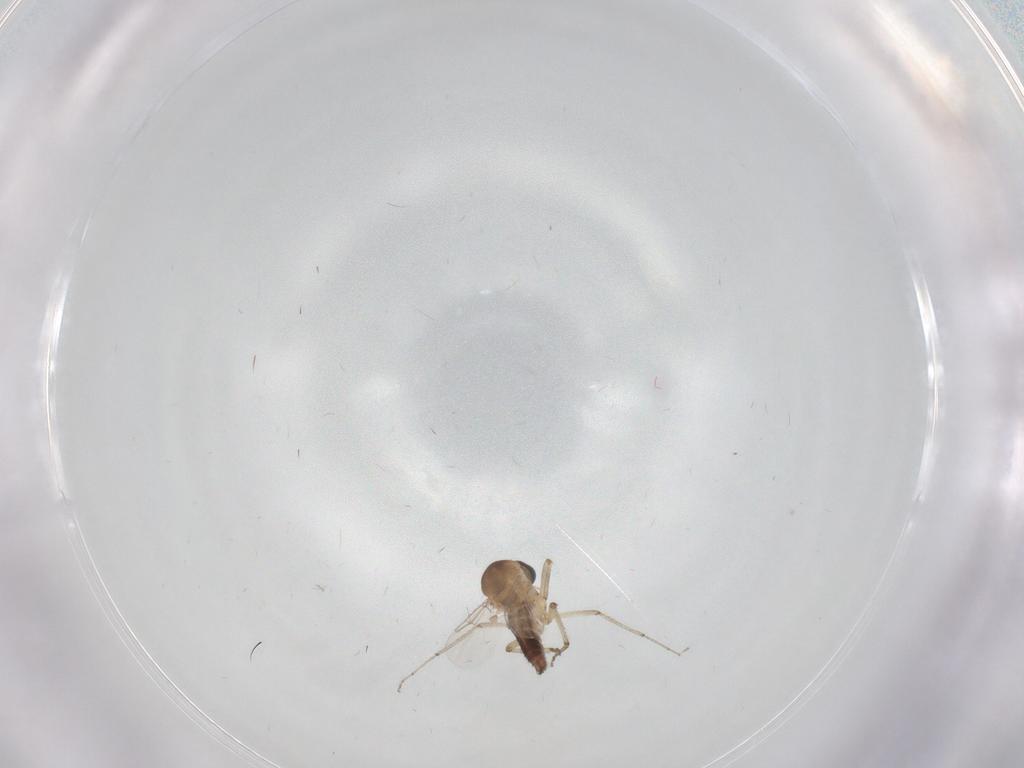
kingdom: Animalia
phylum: Arthropoda
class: Insecta
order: Diptera
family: Ceratopogonidae
